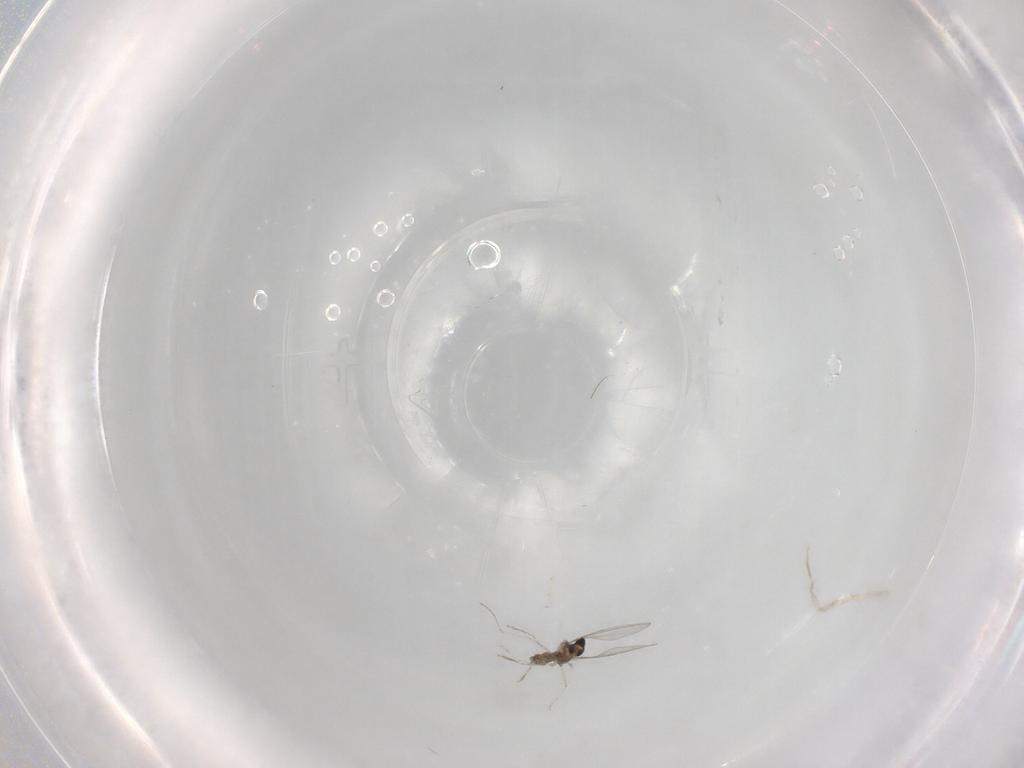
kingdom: Animalia
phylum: Arthropoda
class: Insecta
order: Diptera
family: Cecidomyiidae
